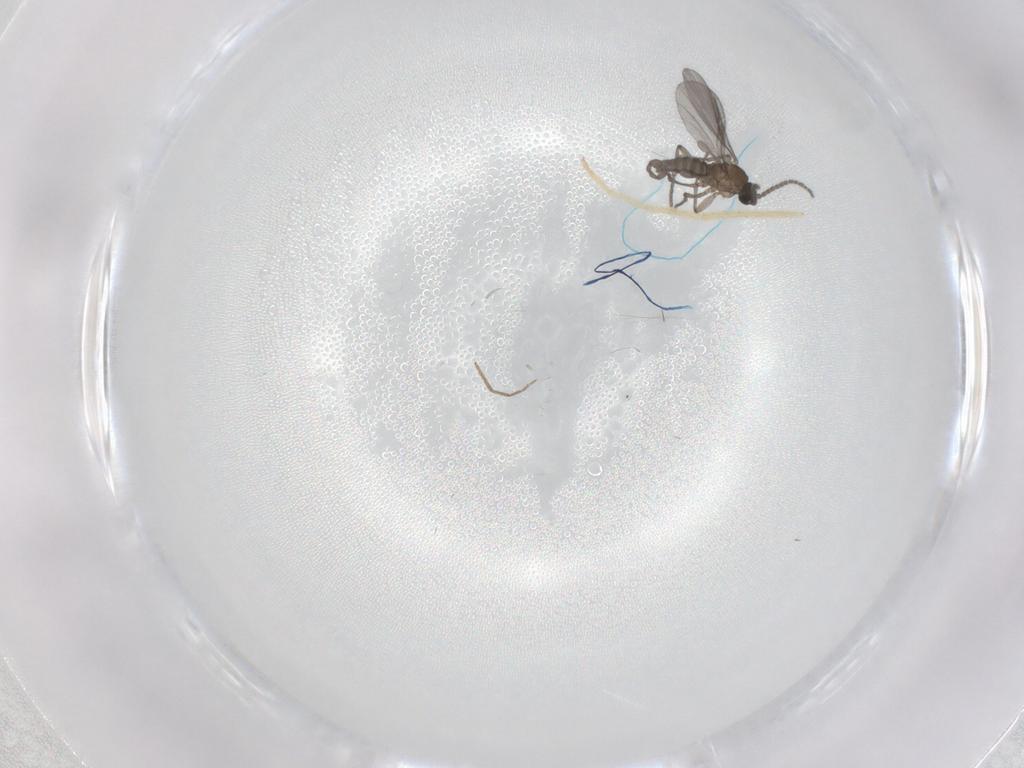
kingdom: Animalia
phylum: Arthropoda
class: Insecta
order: Diptera
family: Sciaridae
